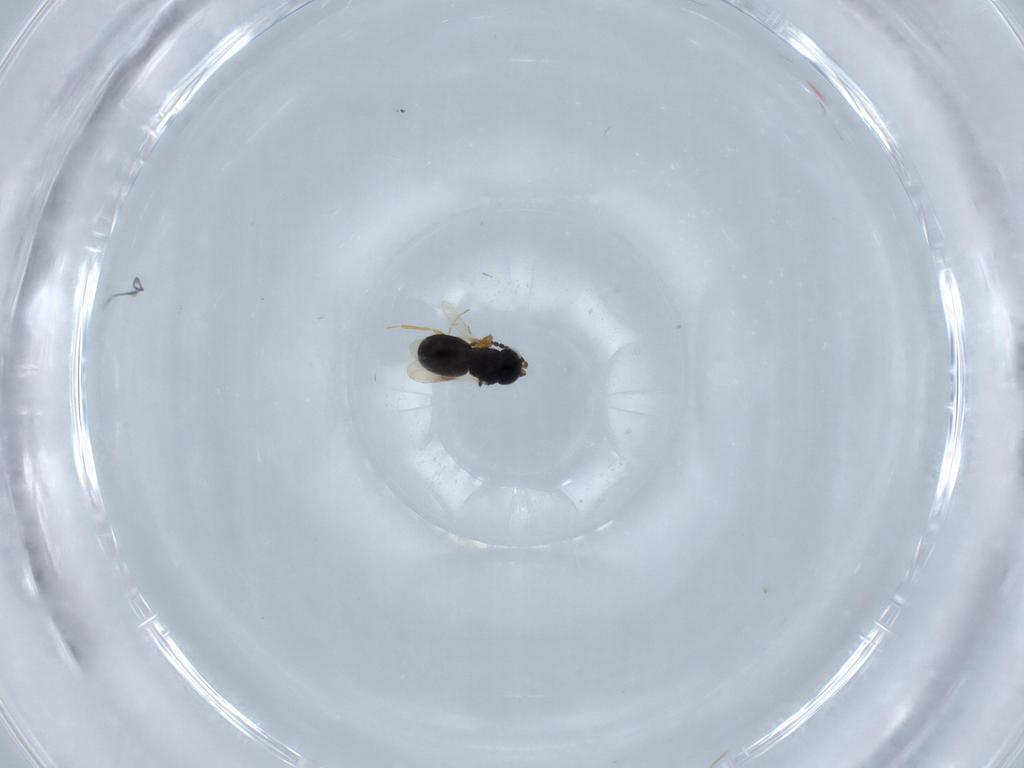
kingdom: Animalia
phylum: Arthropoda
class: Insecta
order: Hymenoptera
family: Scelionidae
